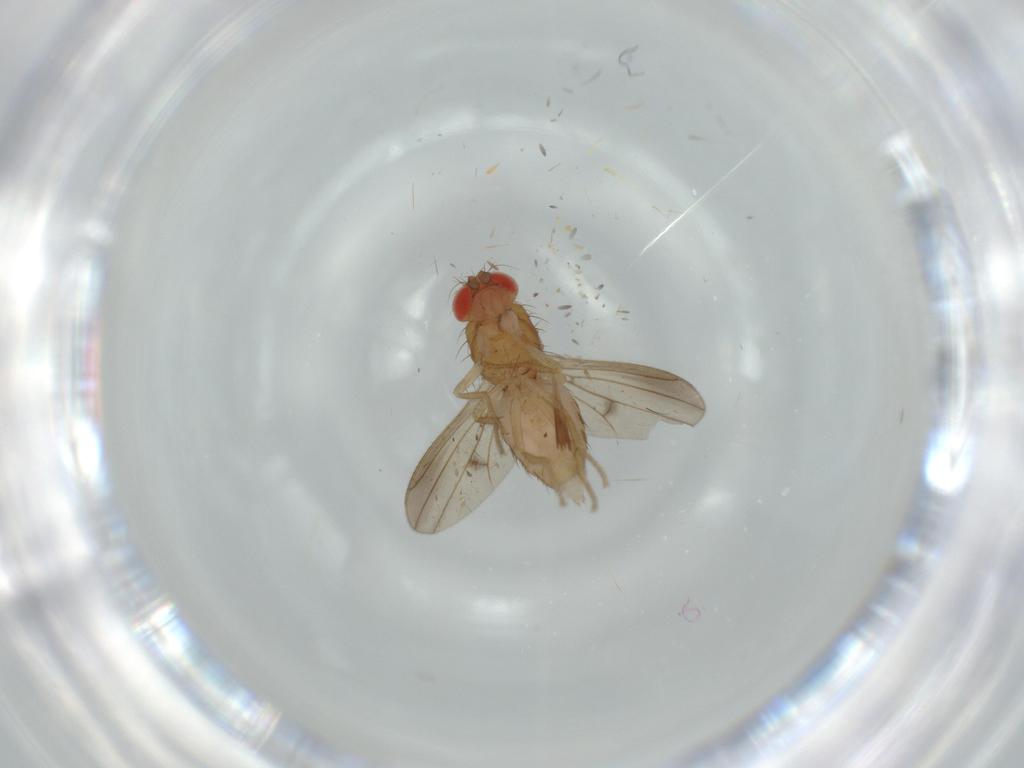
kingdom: Animalia
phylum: Arthropoda
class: Insecta
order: Diptera
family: Drosophilidae
